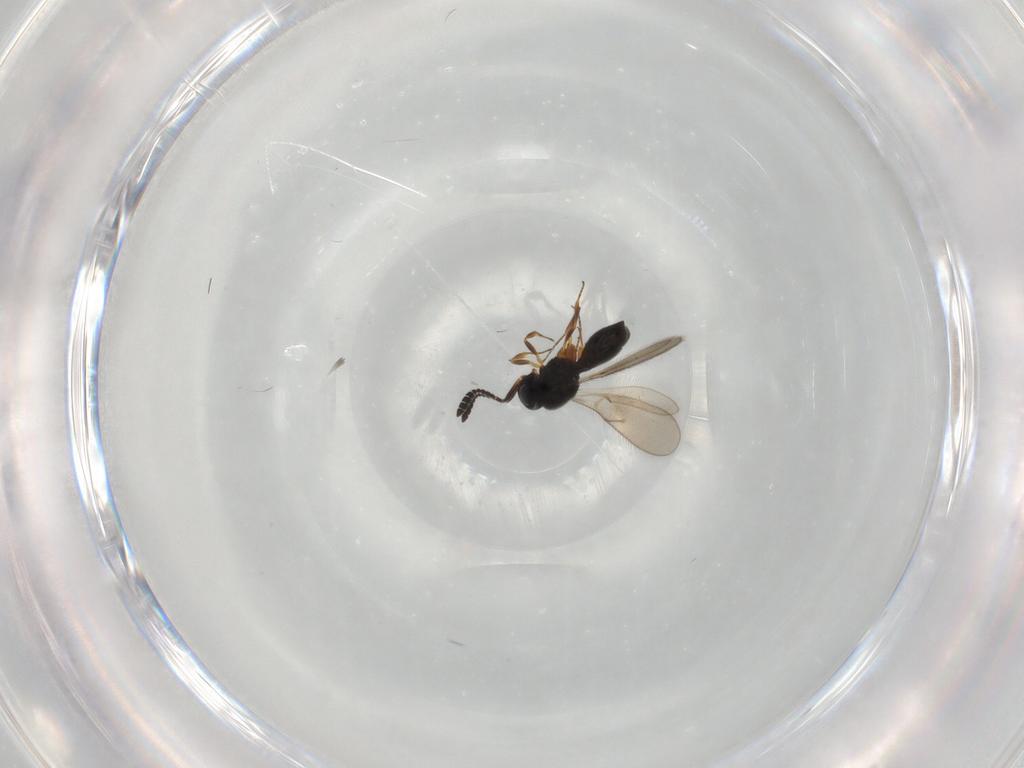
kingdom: Animalia
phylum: Arthropoda
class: Insecta
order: Hymenoptera
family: Scelionidae
